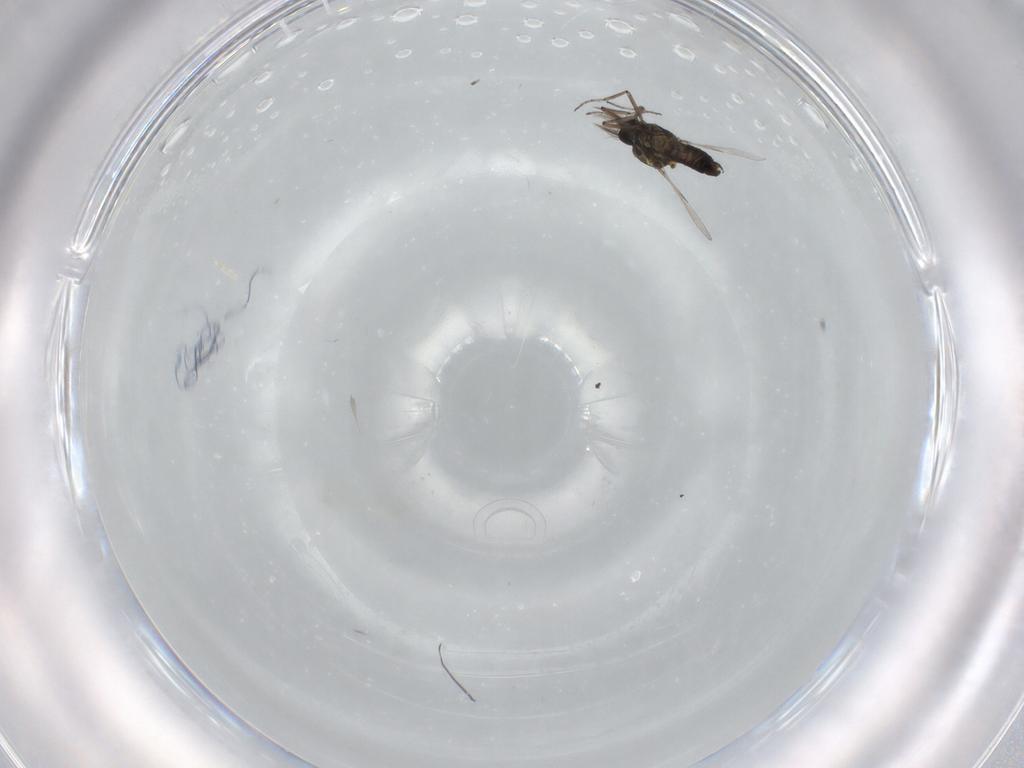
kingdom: Animalia
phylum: Arthropoda
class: Insecta
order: Diptera
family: Ceratopogonidae
